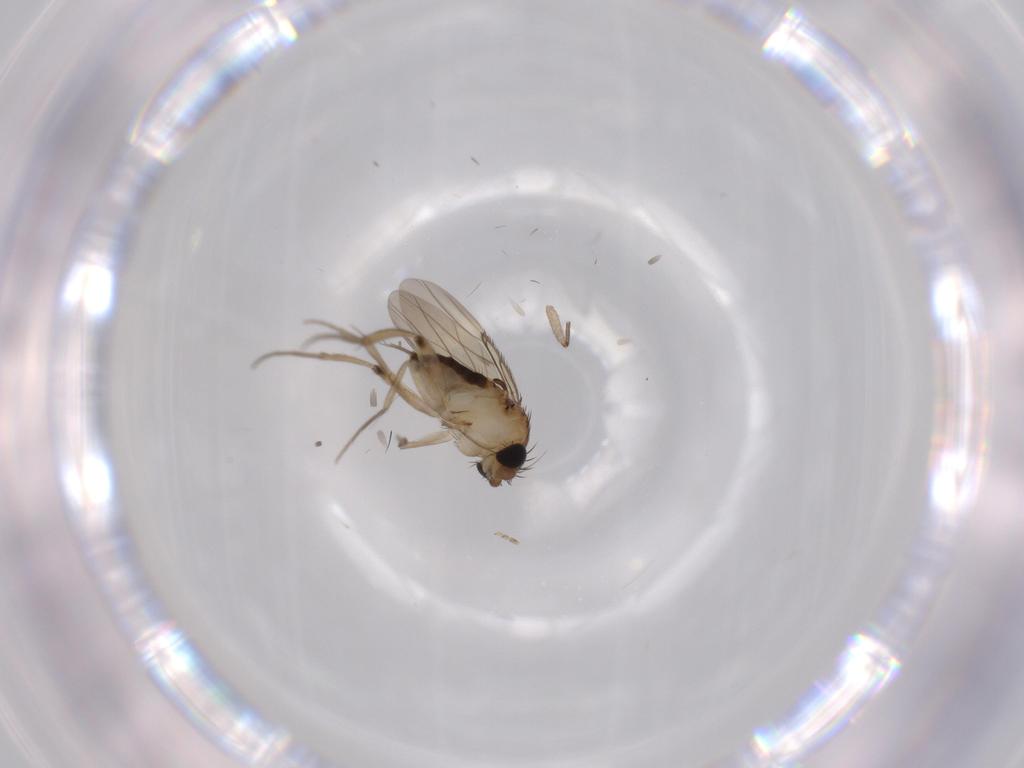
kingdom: Animalia
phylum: Arthropoda
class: Insecta
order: Diptera
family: Phoridae
